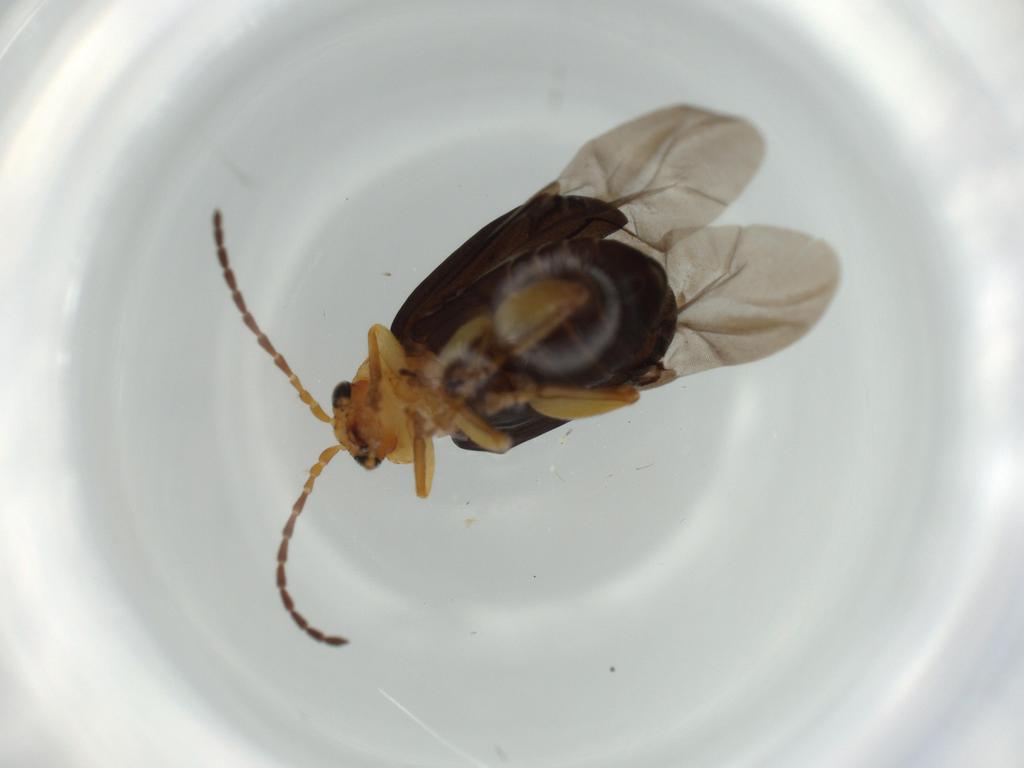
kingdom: Animalia
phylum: Arthropoda
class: Insecta
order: Coleoptera
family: Chrysomelidae
